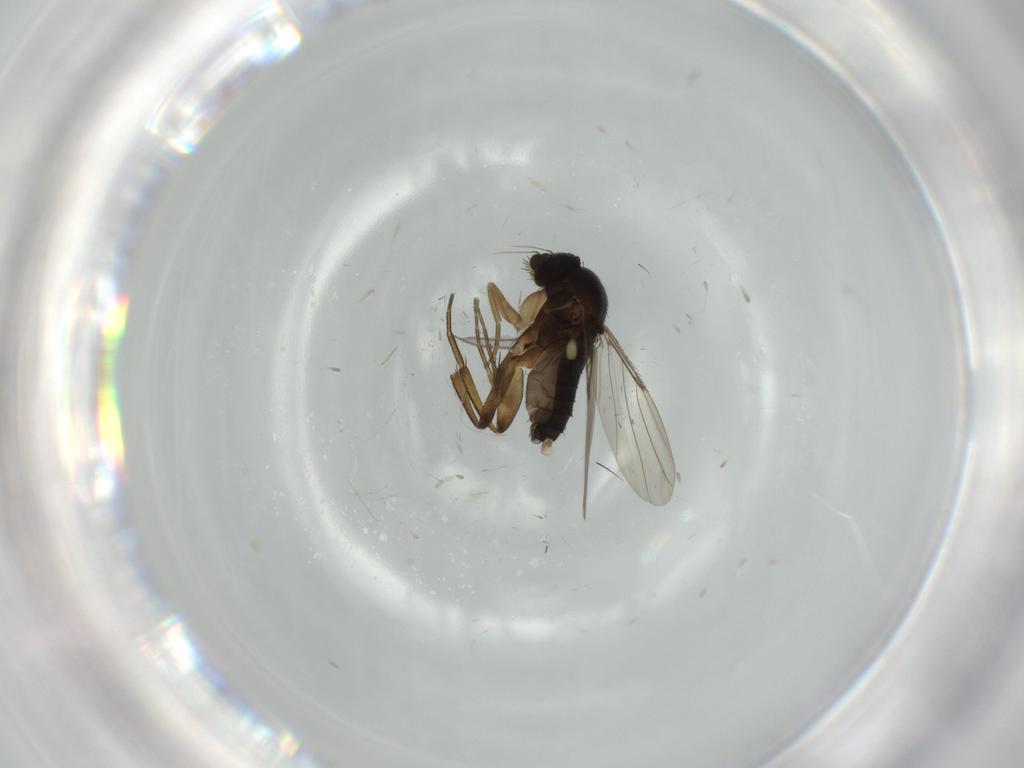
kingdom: Animalia
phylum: Arthropoda
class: Insecta
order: Diptera
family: Phoridae
